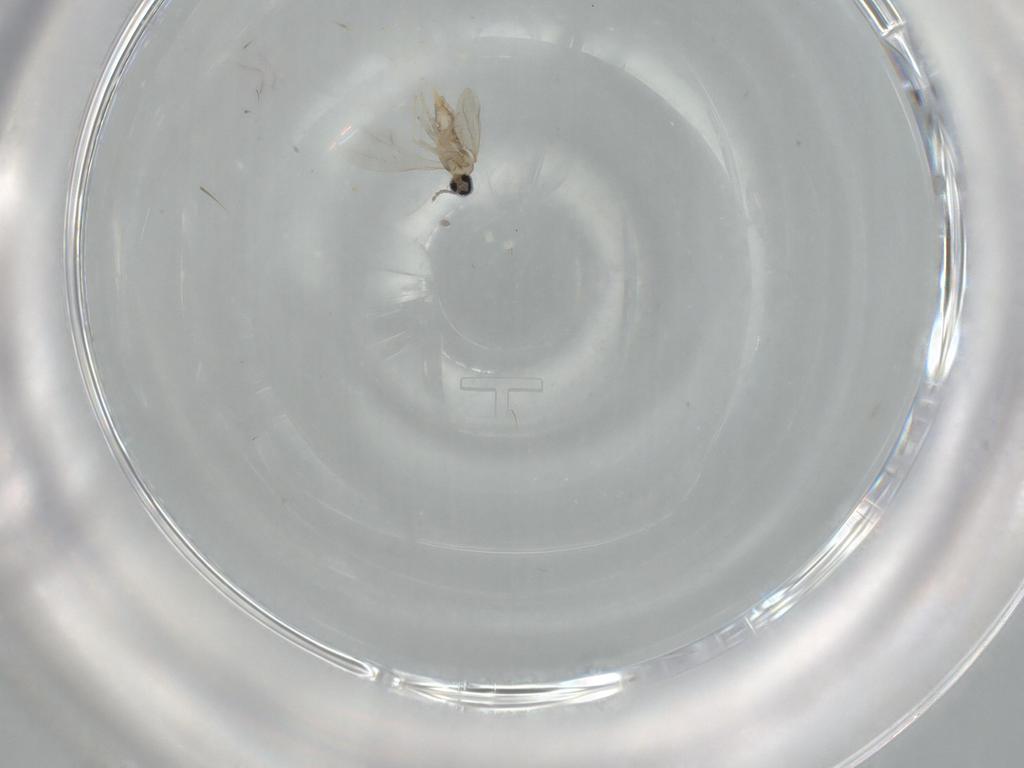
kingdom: Animalia
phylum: Arthropoda
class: Insecta
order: Diptera
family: Cecidomyiidae
